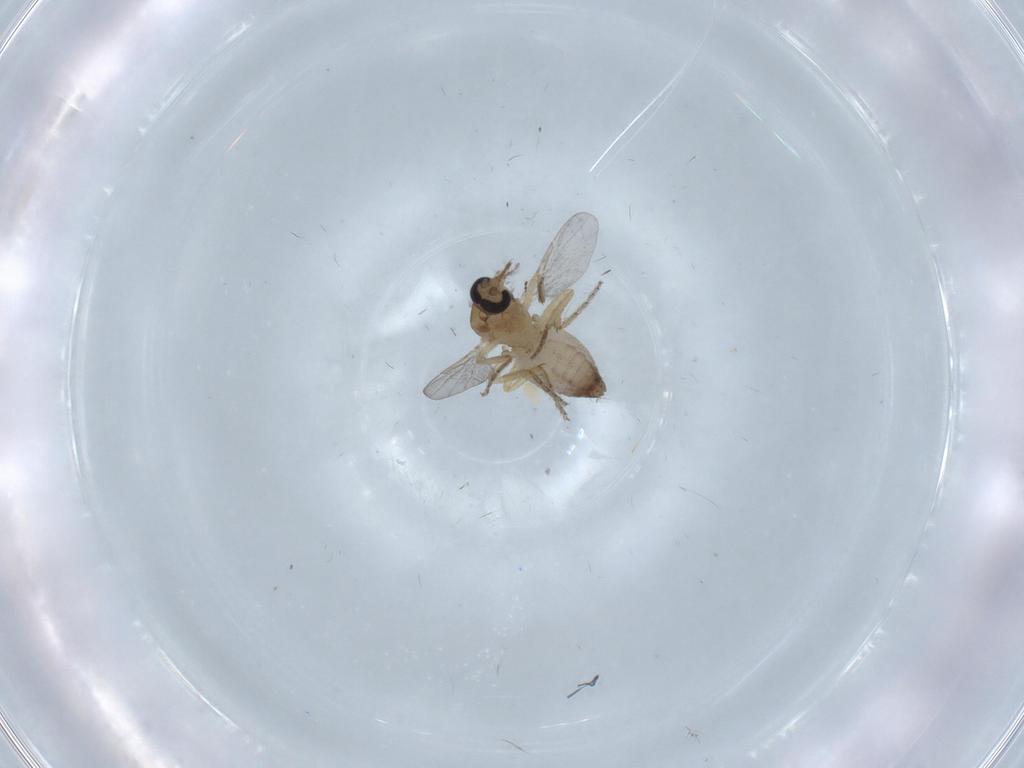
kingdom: Animalia
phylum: Arthropoda
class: Insecta
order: Diptera
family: Ceratopogonidae
